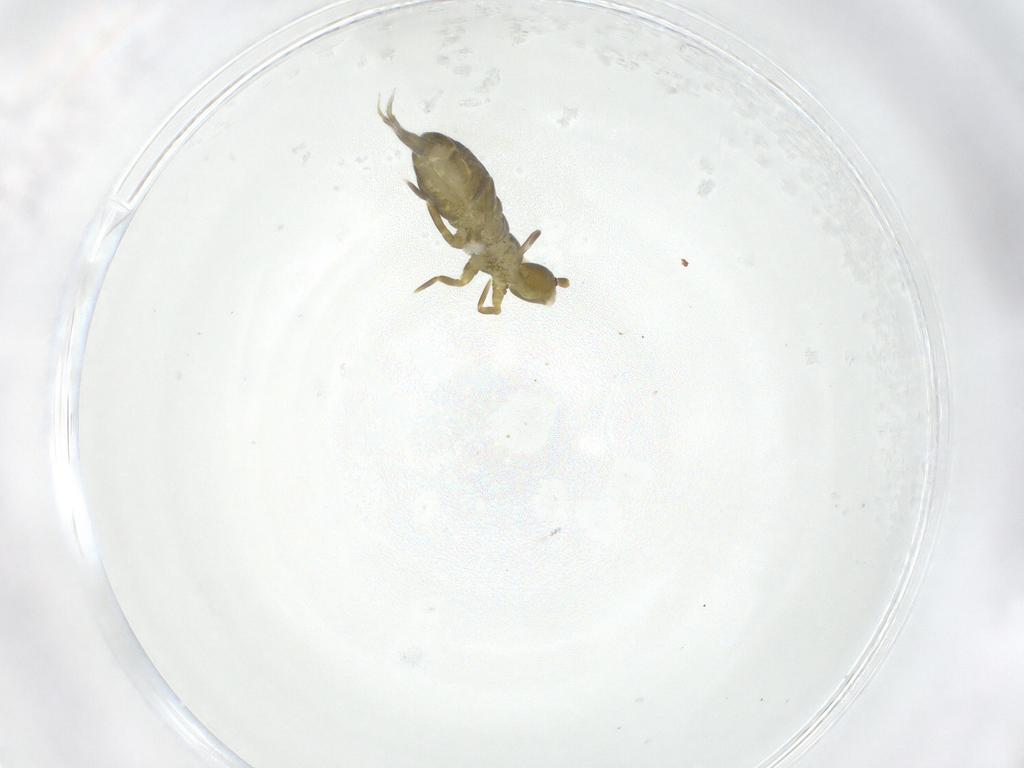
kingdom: Animalia
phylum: Arthropoda
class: Collembola
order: Entomobryomorpha
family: Tomoceridae
